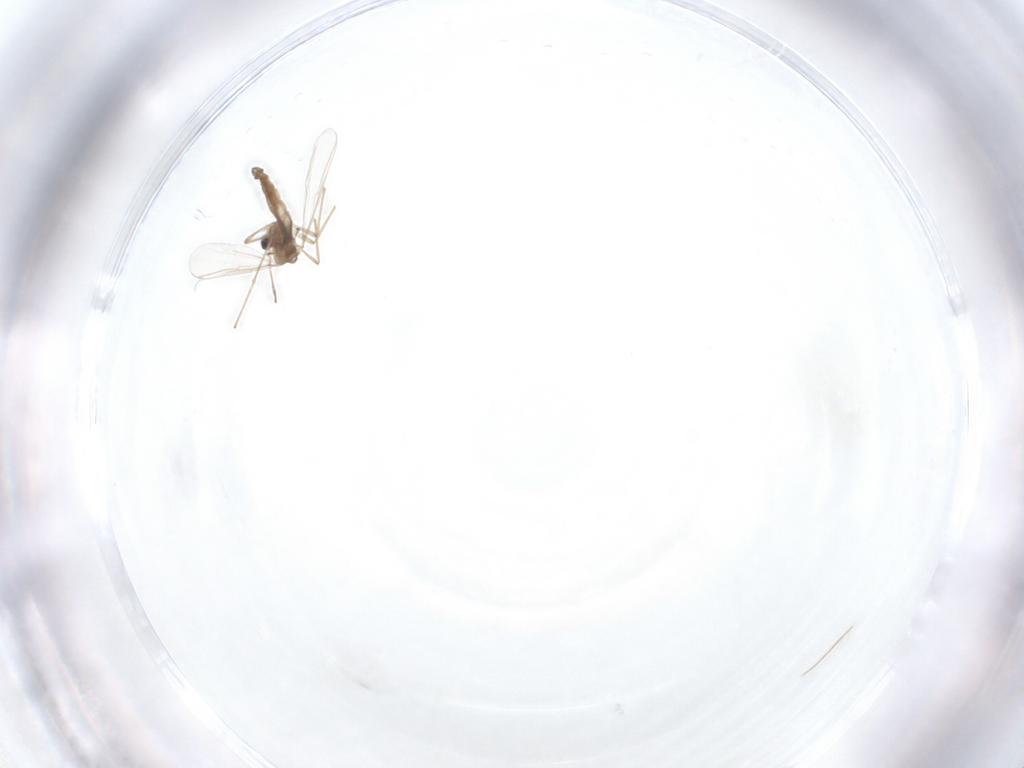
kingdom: Animalia
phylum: Arthropoda
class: Insecta
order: Diptera
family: Chironomidae
